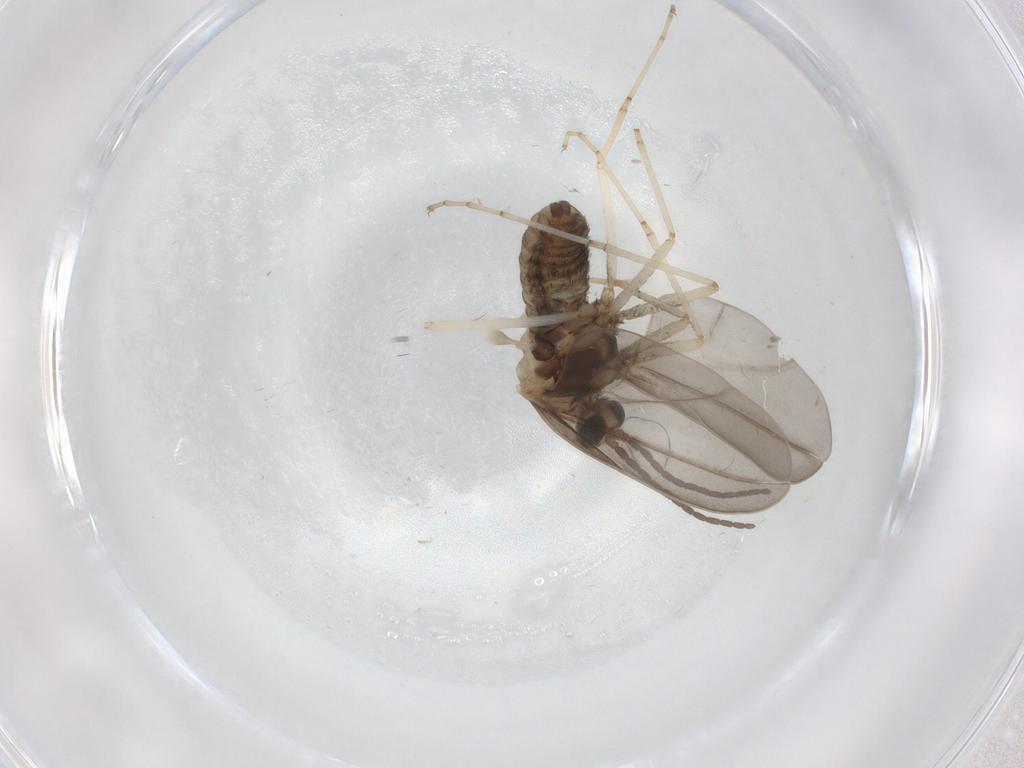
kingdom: Animalia
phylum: Arthropoda
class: Insecta
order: Diptera
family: Cecidomyiidae
